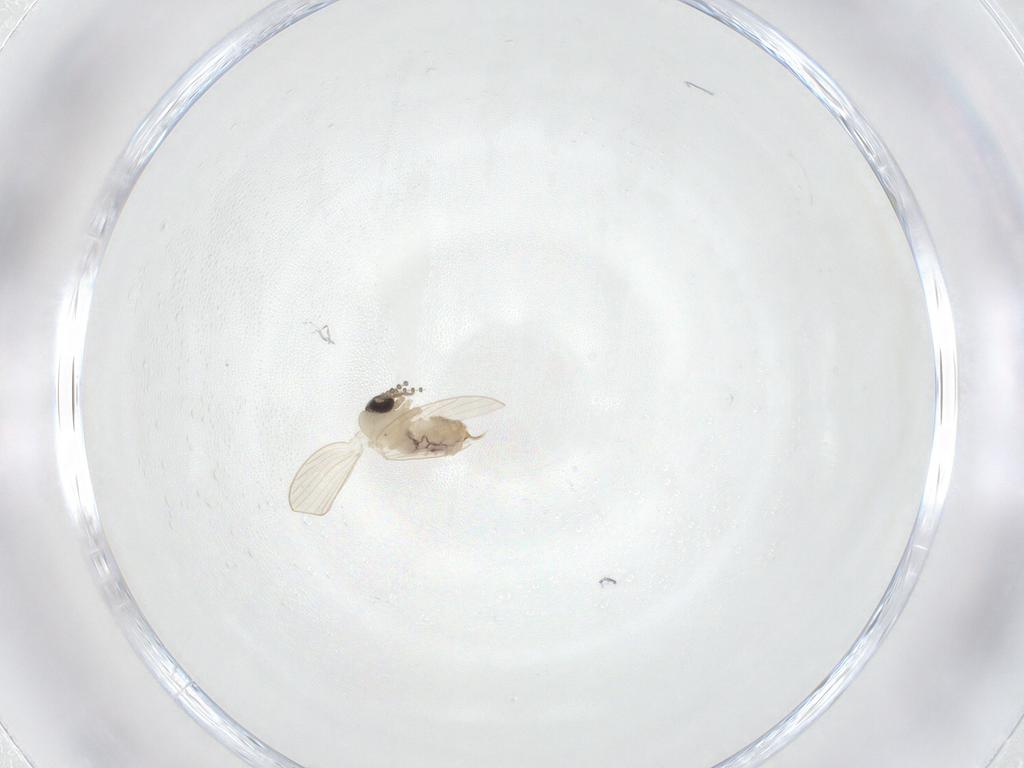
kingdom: Animalia
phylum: Arthropoda
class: Insecta
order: Diptera
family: Psychodidae
